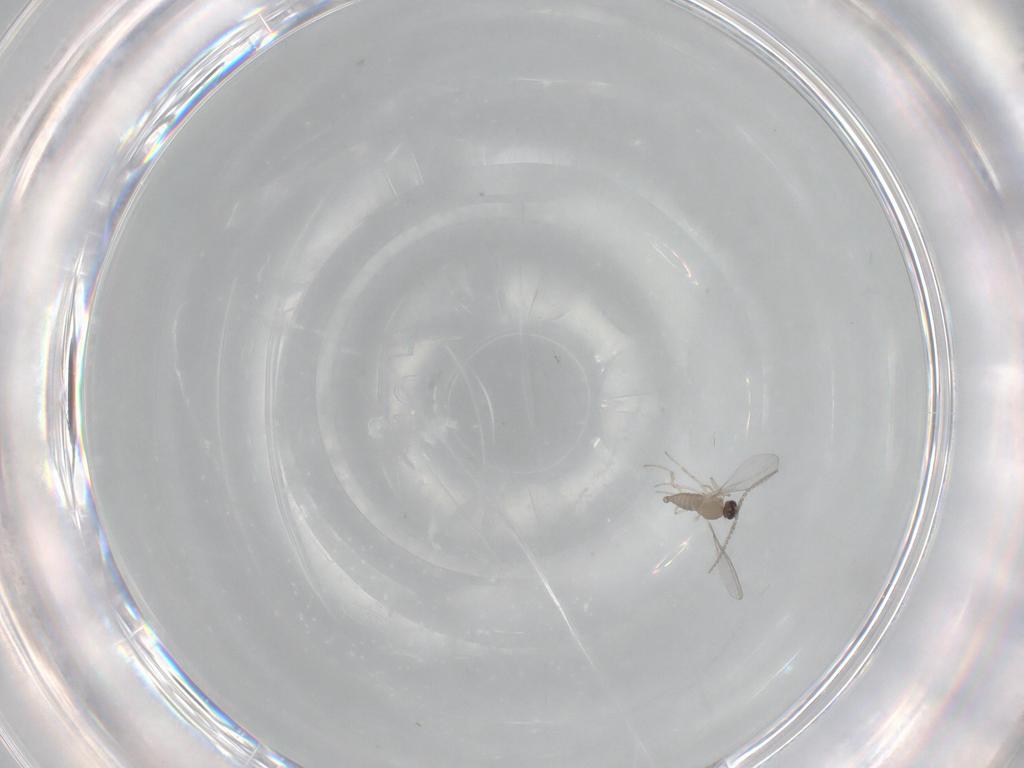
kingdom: Animalia
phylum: Arthropoda
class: Insecta
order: Diptera
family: Cecidomyiidae
